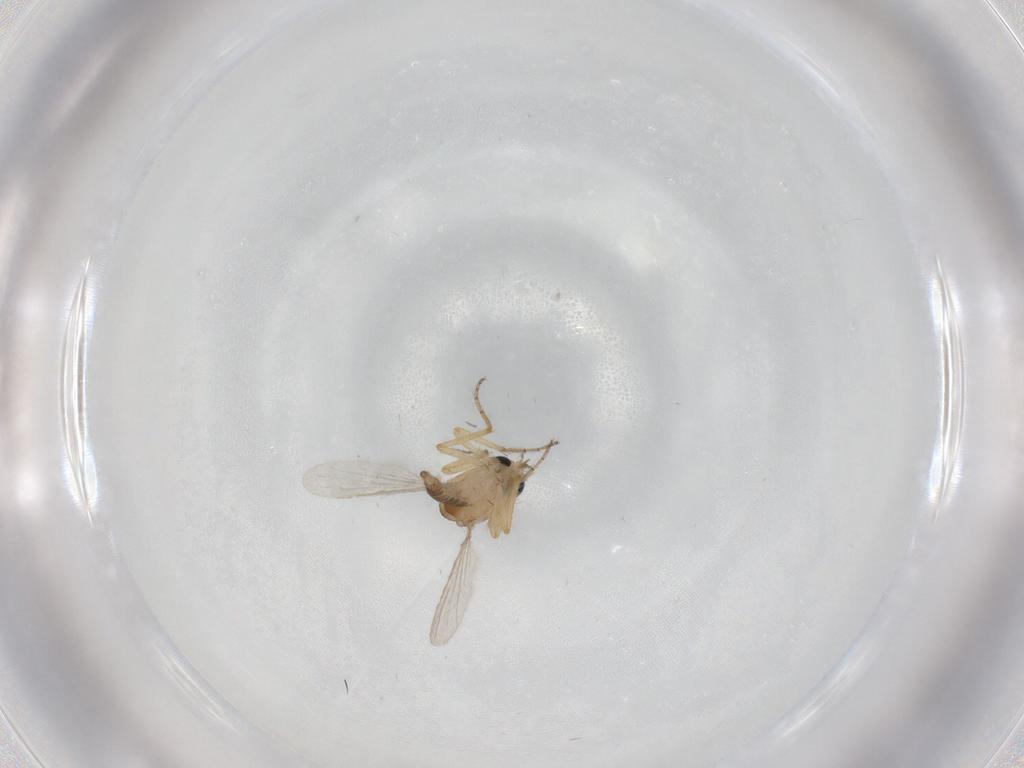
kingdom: Animalia
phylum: Arthropoda
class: Insecta
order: Diptera
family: Ceratopogonidae
